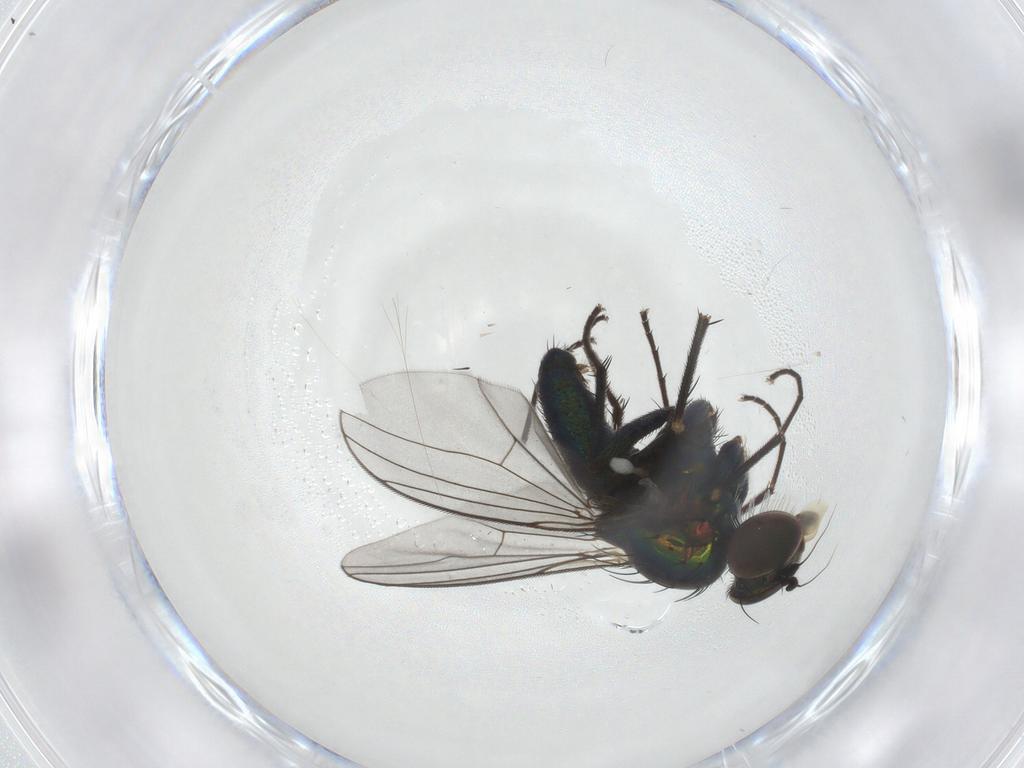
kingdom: Animalia
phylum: Arthropoda
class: Insecta
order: Diptera
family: Dolichopodidae
